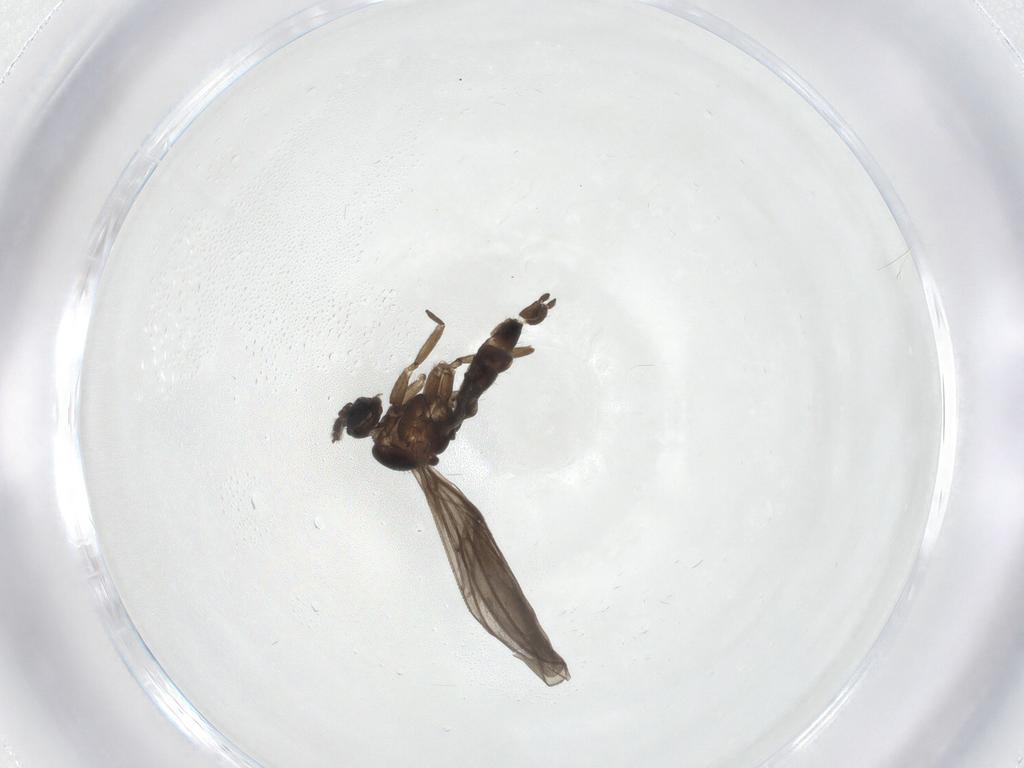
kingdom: Animalia
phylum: Arthropoda
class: Insecta
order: Diptera
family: Sciaridae
